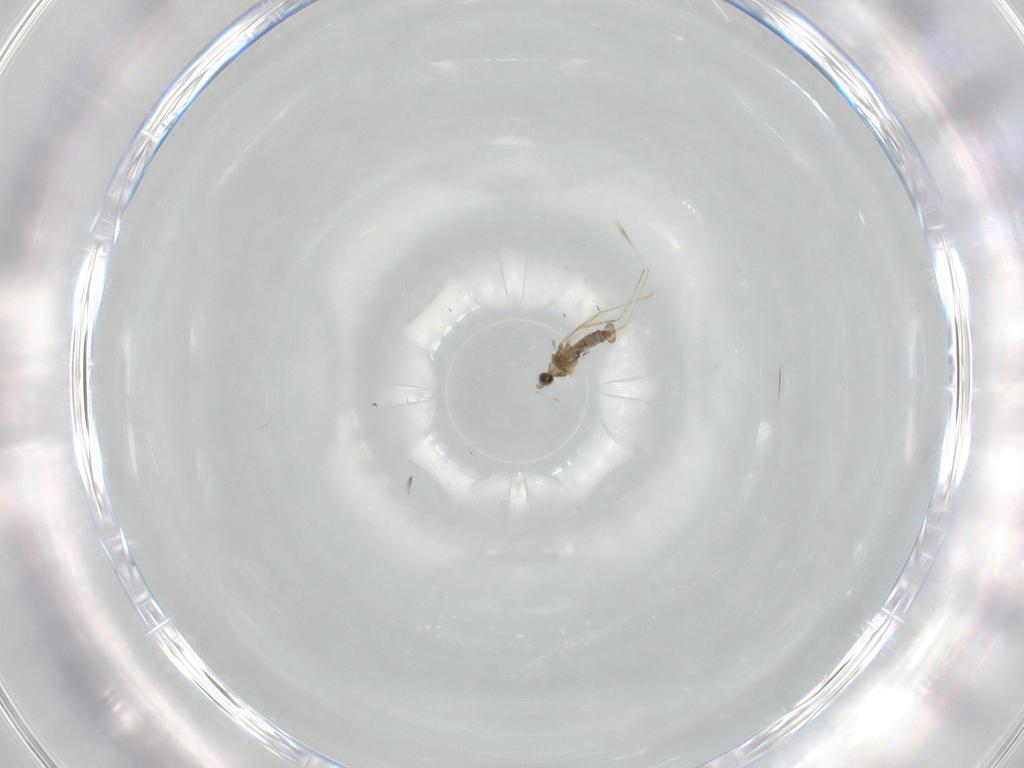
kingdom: Animalia
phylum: Arthropoda
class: Insecta
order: Diptera
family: Cecidomyiidae
